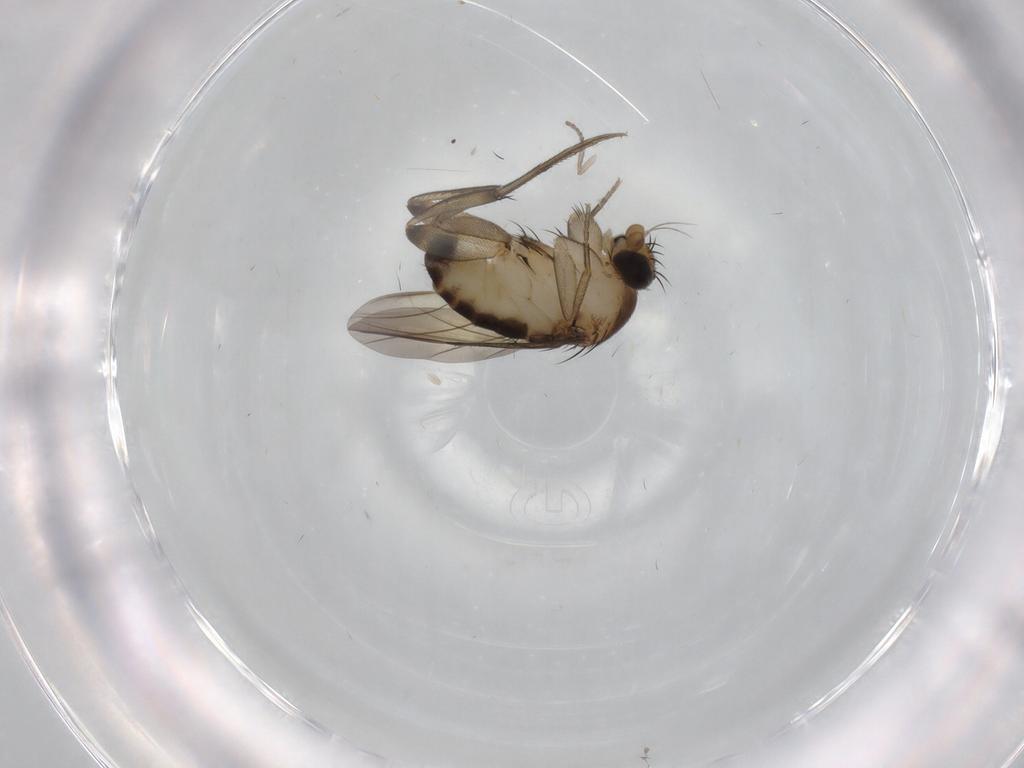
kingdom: Animalia
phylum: Arthropoda
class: Insecta
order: Diptera
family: Phoridae
